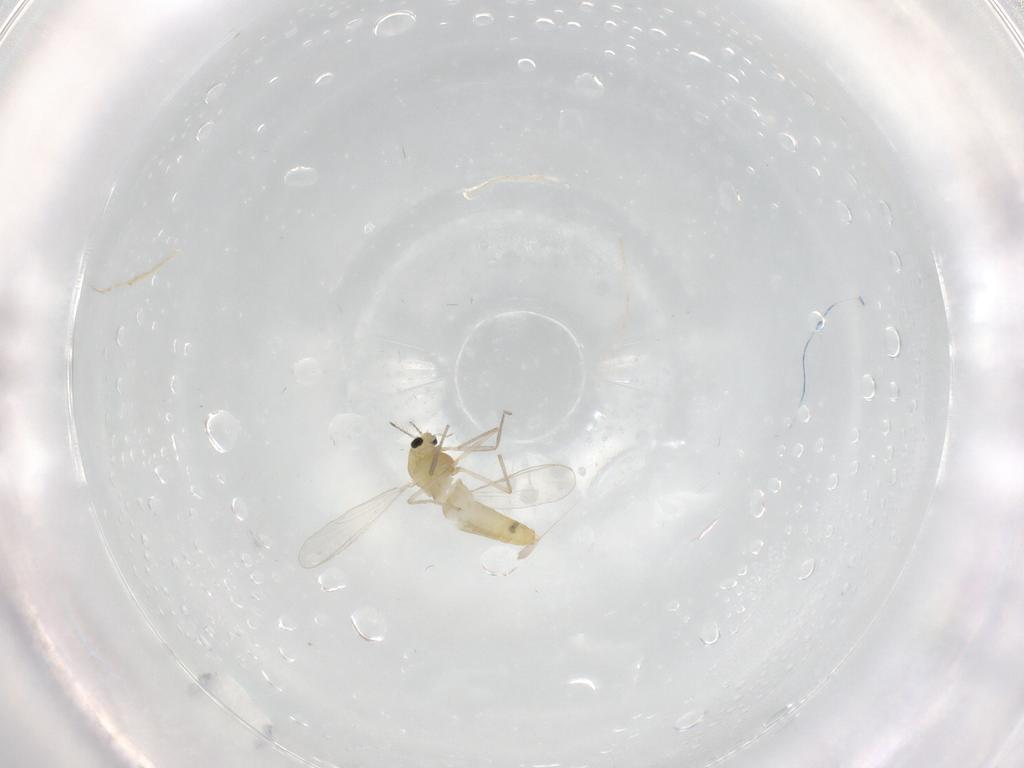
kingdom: Animalia
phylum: Arthropoda
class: Insecta
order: Diptera
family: Chironomidae
